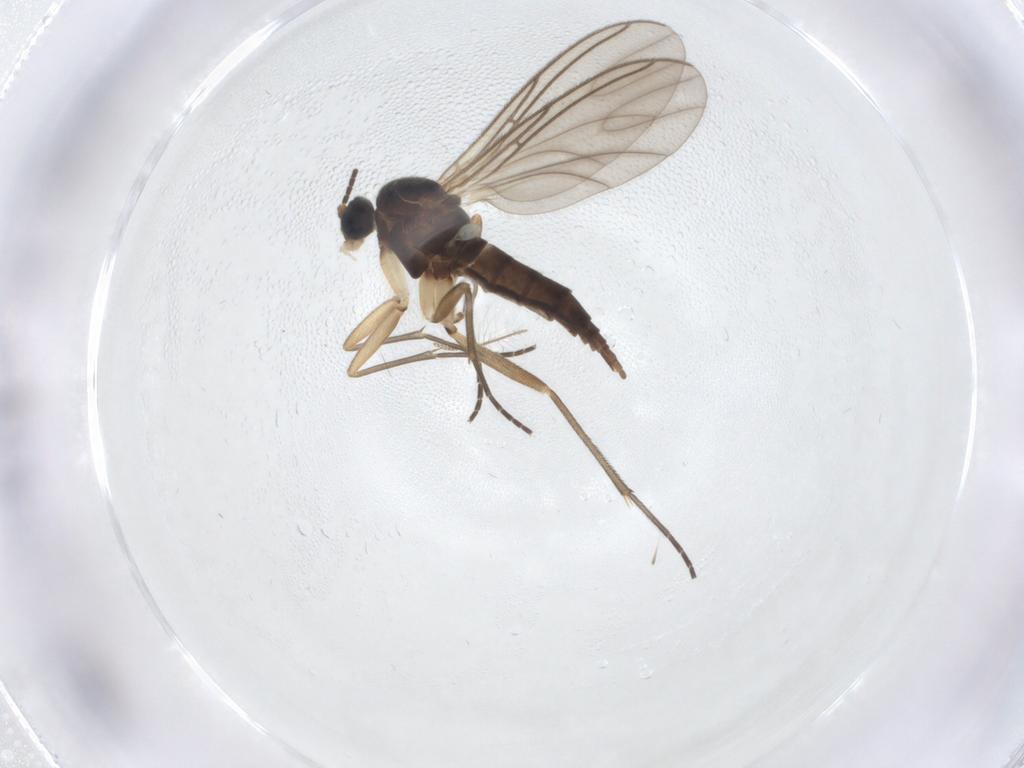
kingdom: Animalia
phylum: Arthropoda
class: Insecta
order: Diptera
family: Sciaridae
